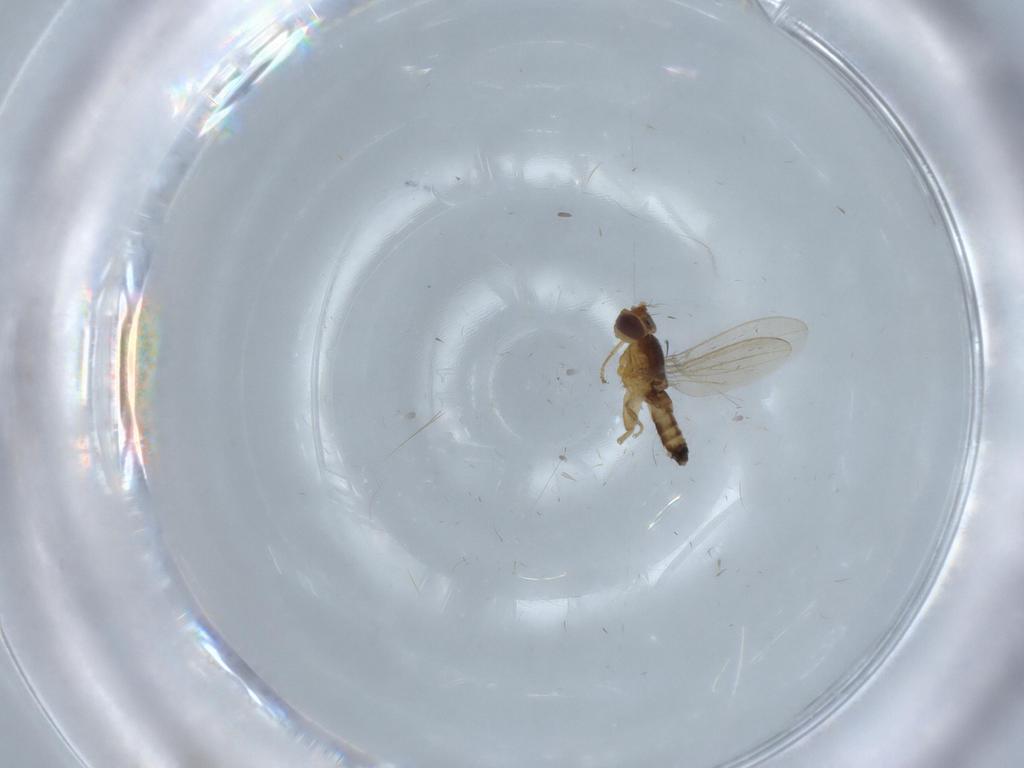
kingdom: Animalia
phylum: Arthropoda
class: Insecta
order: Diptera
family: Periscelididae
